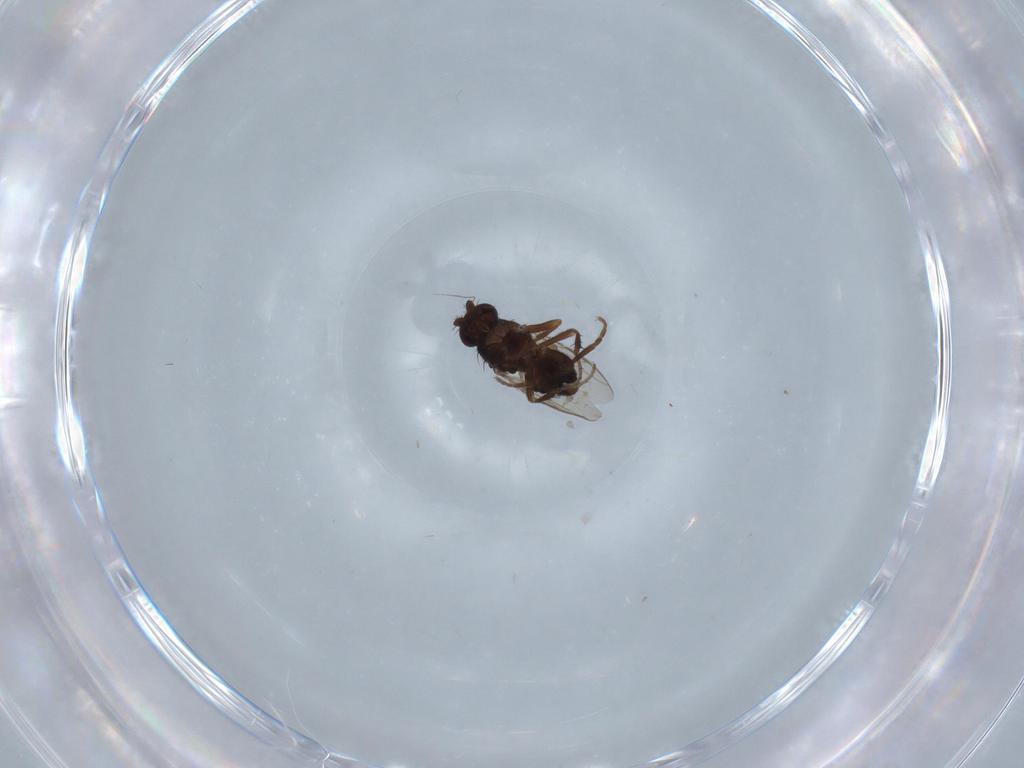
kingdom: Animalia
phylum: Arthropoda
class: Insecta
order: Diptera
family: Sphaeroceridae
